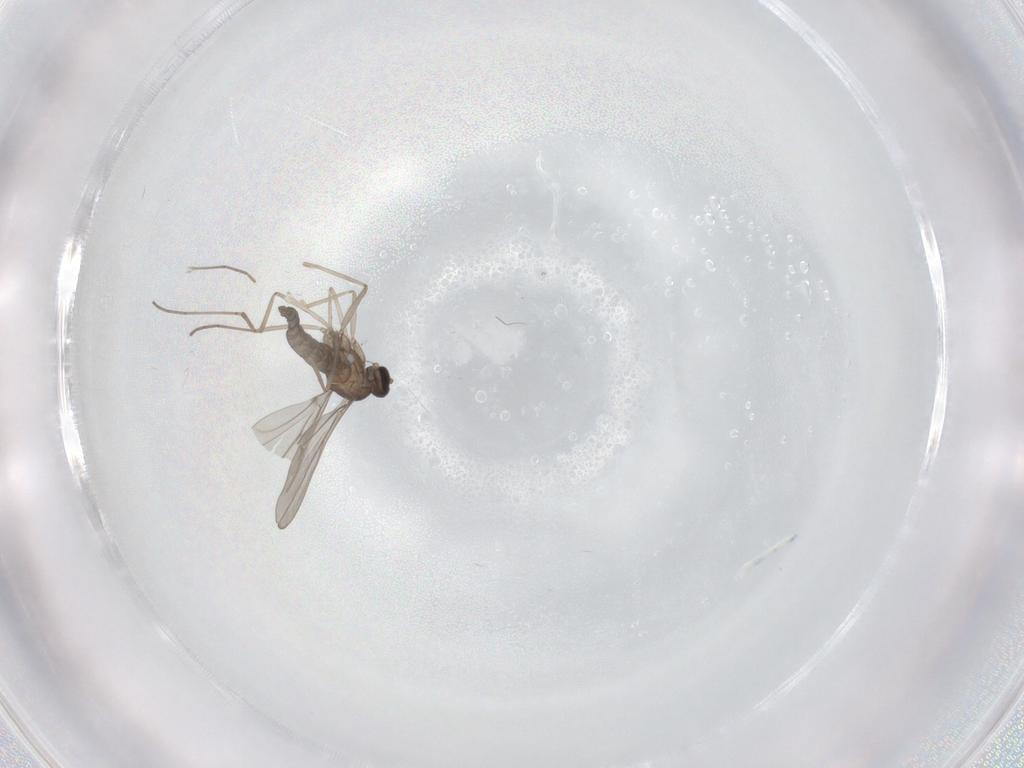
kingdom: Animalia
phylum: Arthropoda
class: Insecta
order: Diptera
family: Cecidomyiidae
